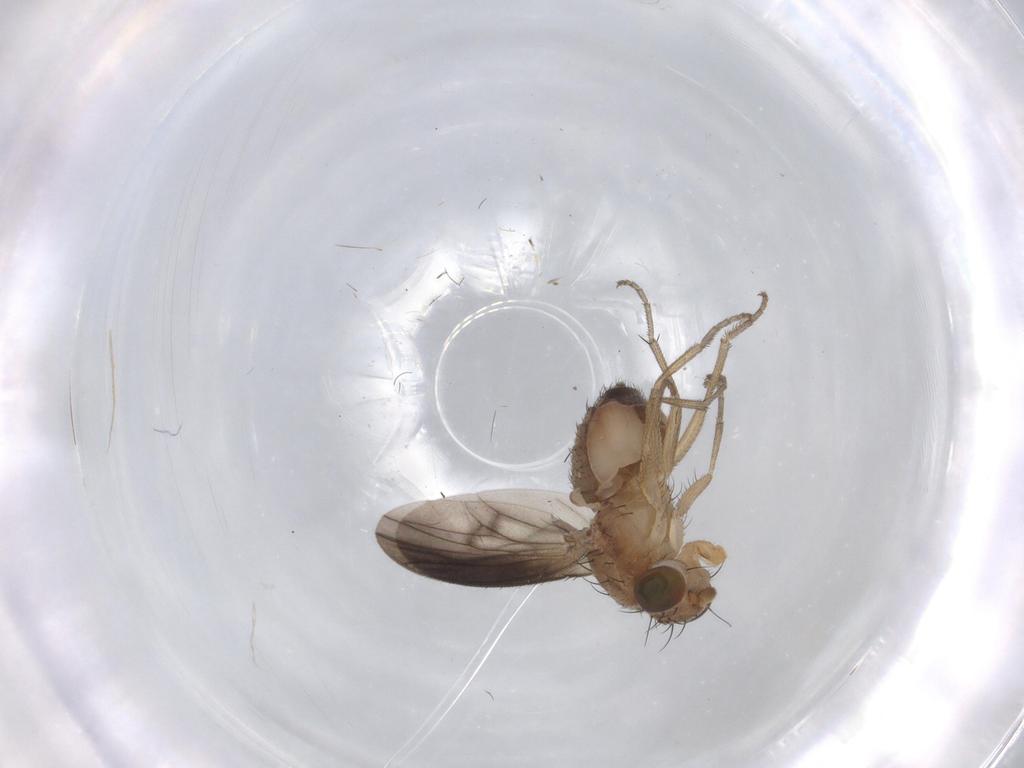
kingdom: Animalia
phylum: Arthropoda
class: Insecta
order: Diptera
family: Heleomyzidae
